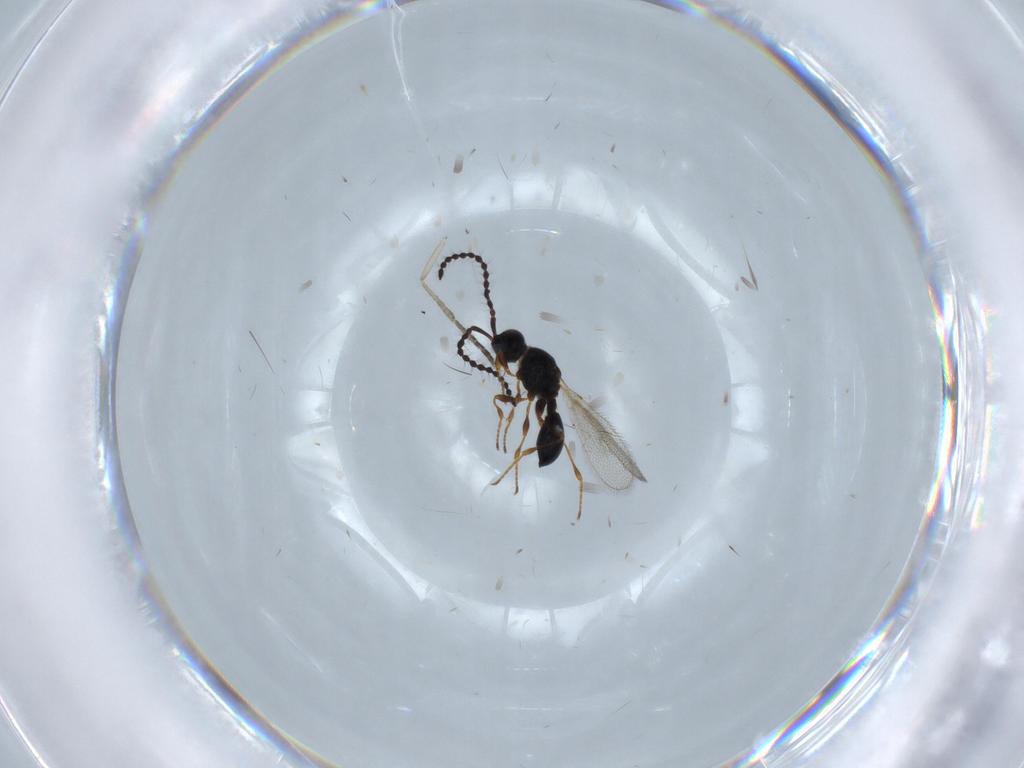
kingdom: Animalia
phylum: Arthropoda
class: Insecta
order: Hymenoptera
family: Diapriidae
